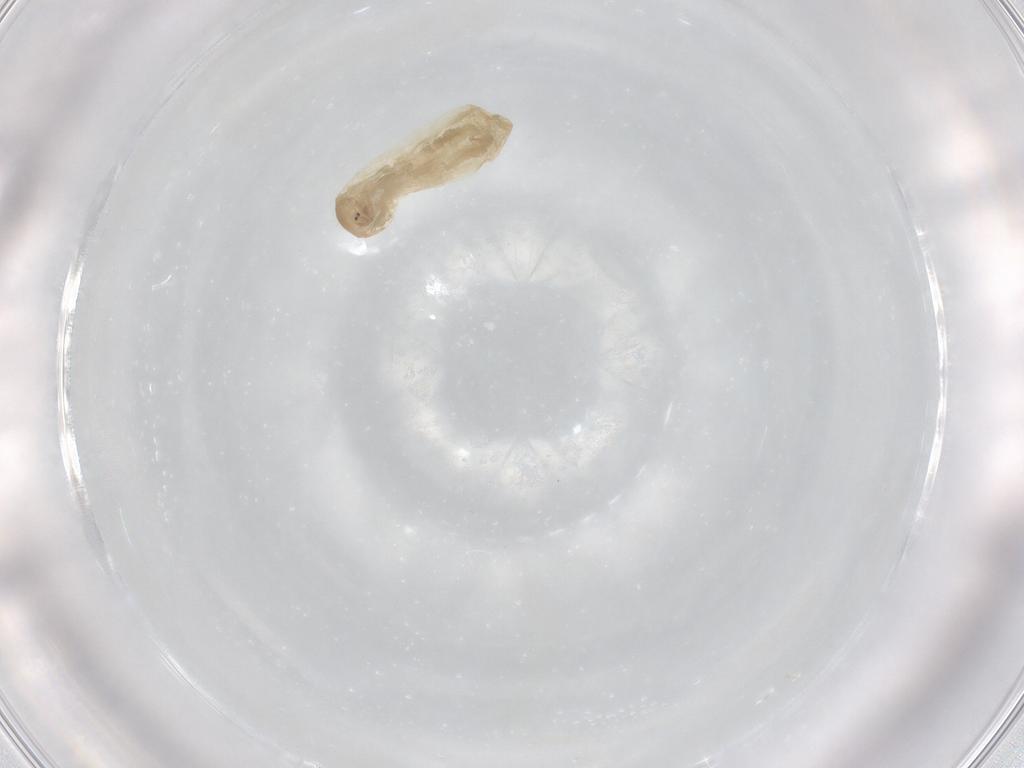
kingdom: Animalia
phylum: Arthropoda
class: Insecta
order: Diptera
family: Chironomidae
